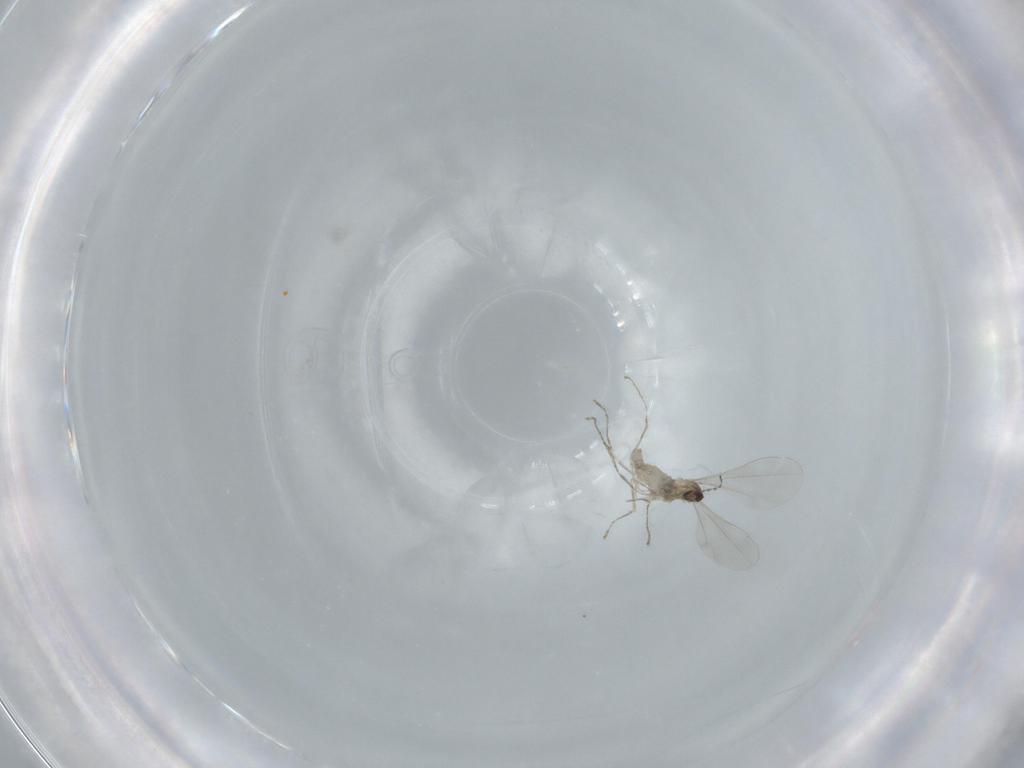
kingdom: Animalia
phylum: Arthropoda
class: Insecta
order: Diptera
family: Cecidomyiidae
